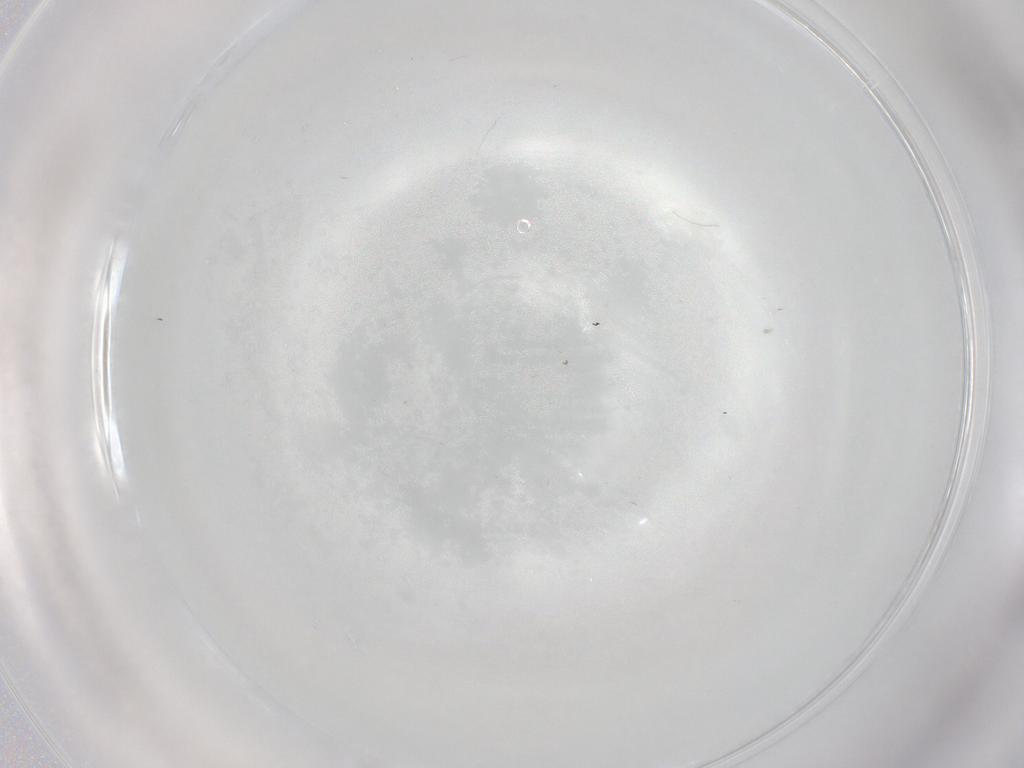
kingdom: Animalia
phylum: Arthropoda
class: Insecta
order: Diptera
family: Cecidomyiidae
